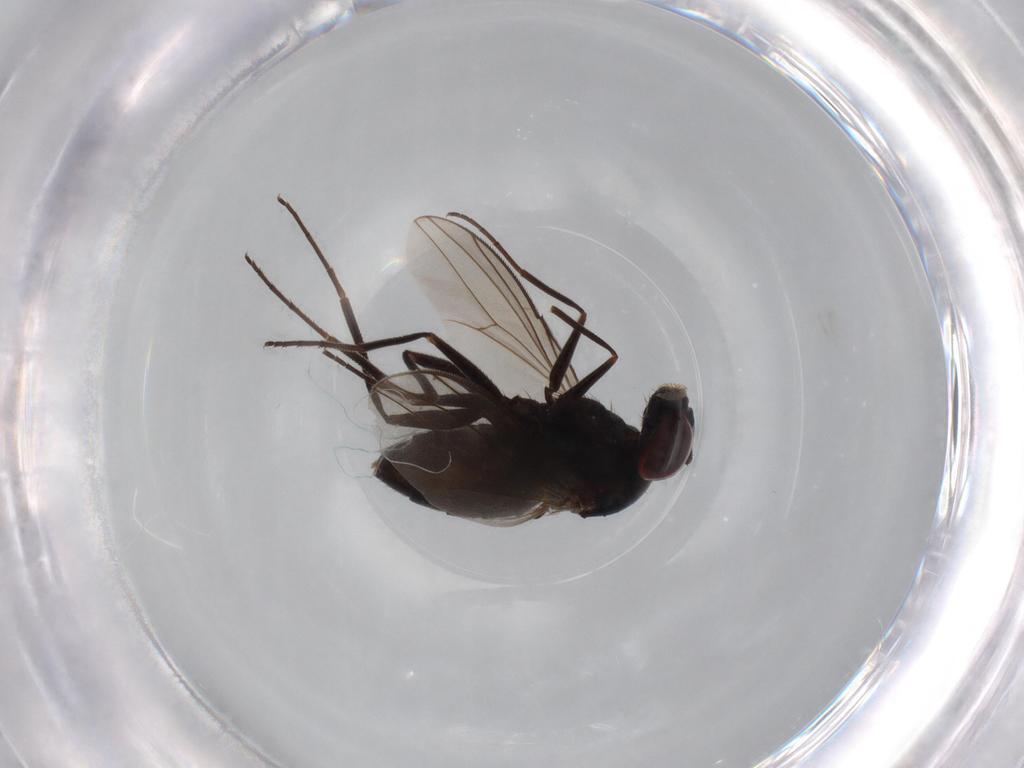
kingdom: Animalia
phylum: Arthropoda
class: Insecta
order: Diptera
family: Dolichopodidae
